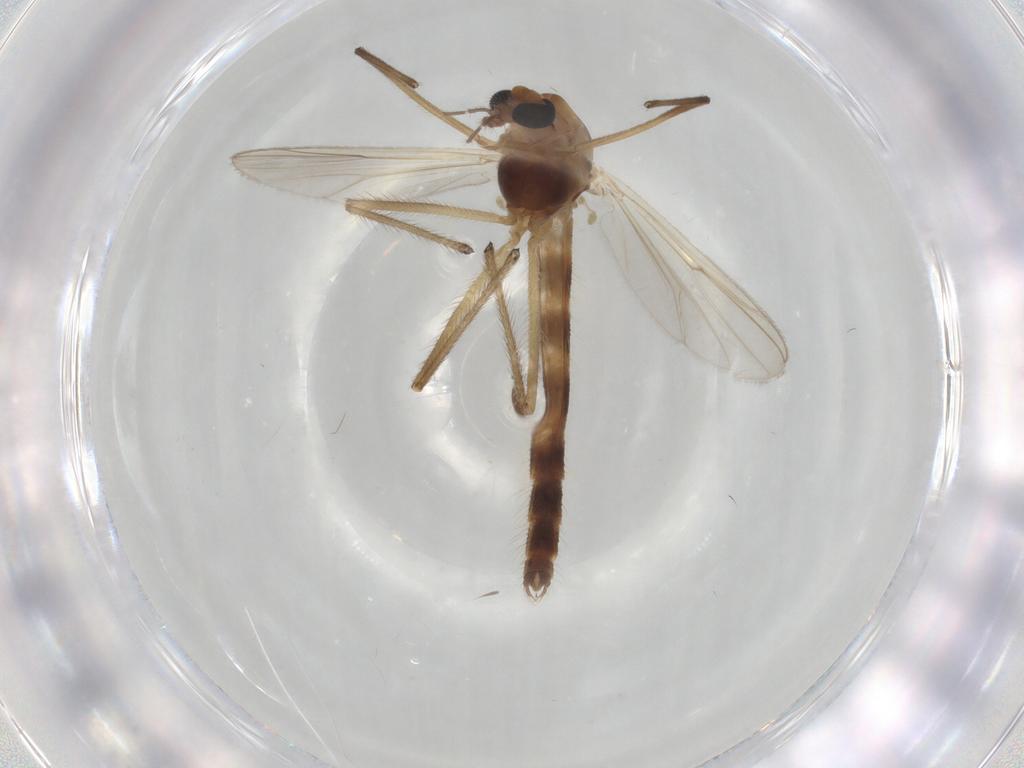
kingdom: Animalia
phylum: Arthropoda
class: Insecta
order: Diptera
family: Chironomidae
